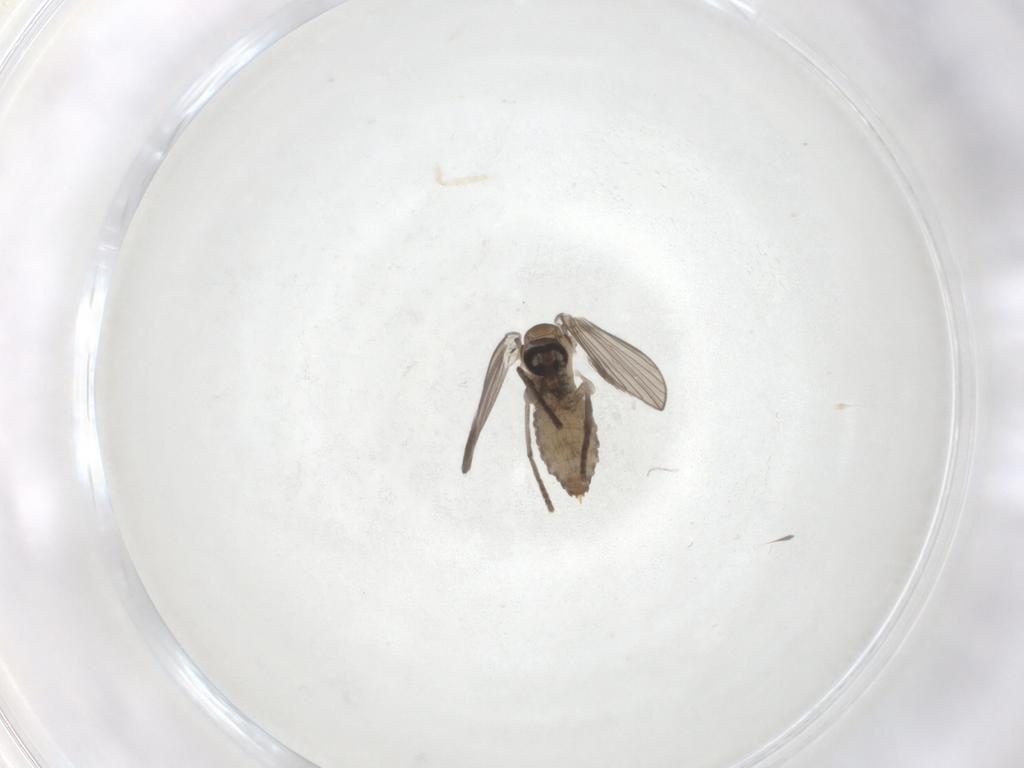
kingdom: Animalia
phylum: Arthropoda
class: Insecta
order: Diptera
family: Psychodidae
